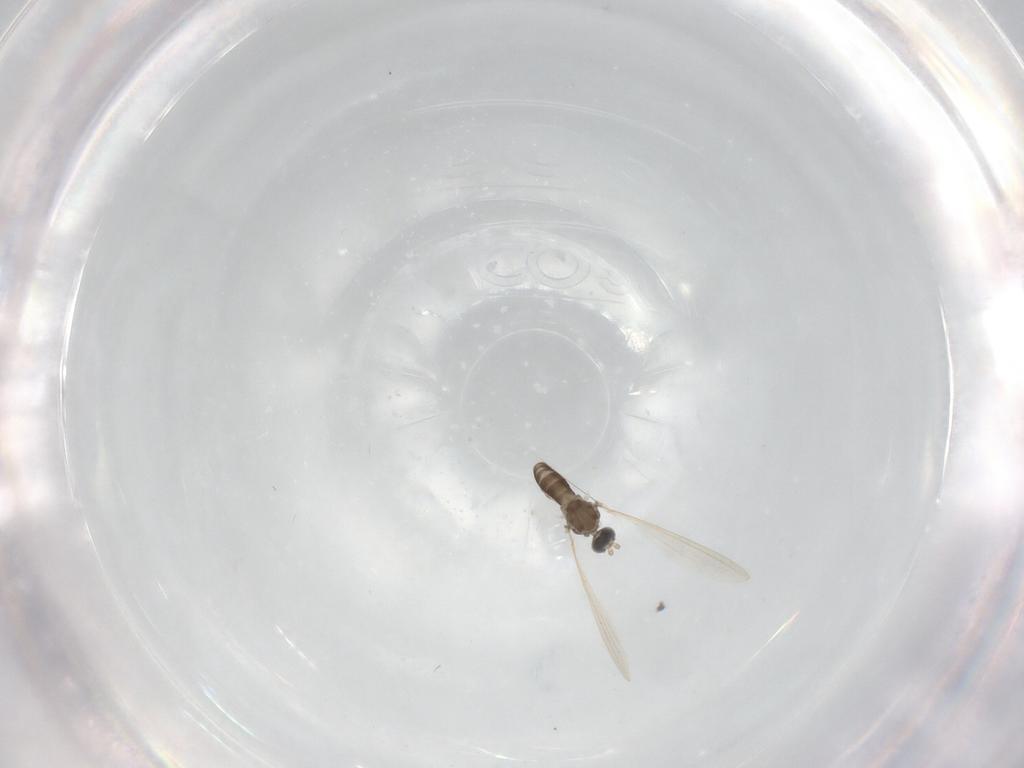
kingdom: Animalia
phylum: Arthropoda
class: Insecta
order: Diptera
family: Cecidomyiidae
